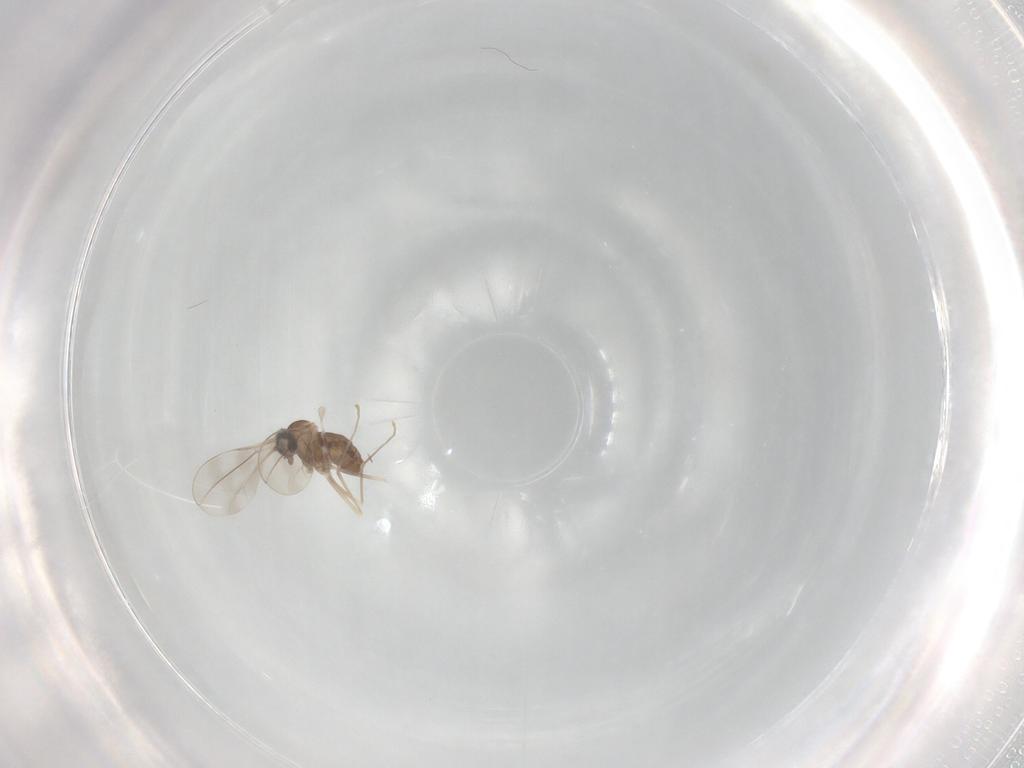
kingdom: Animalia
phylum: Arthropoda
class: Insecta
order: Diptera
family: Cecidomyiidae
